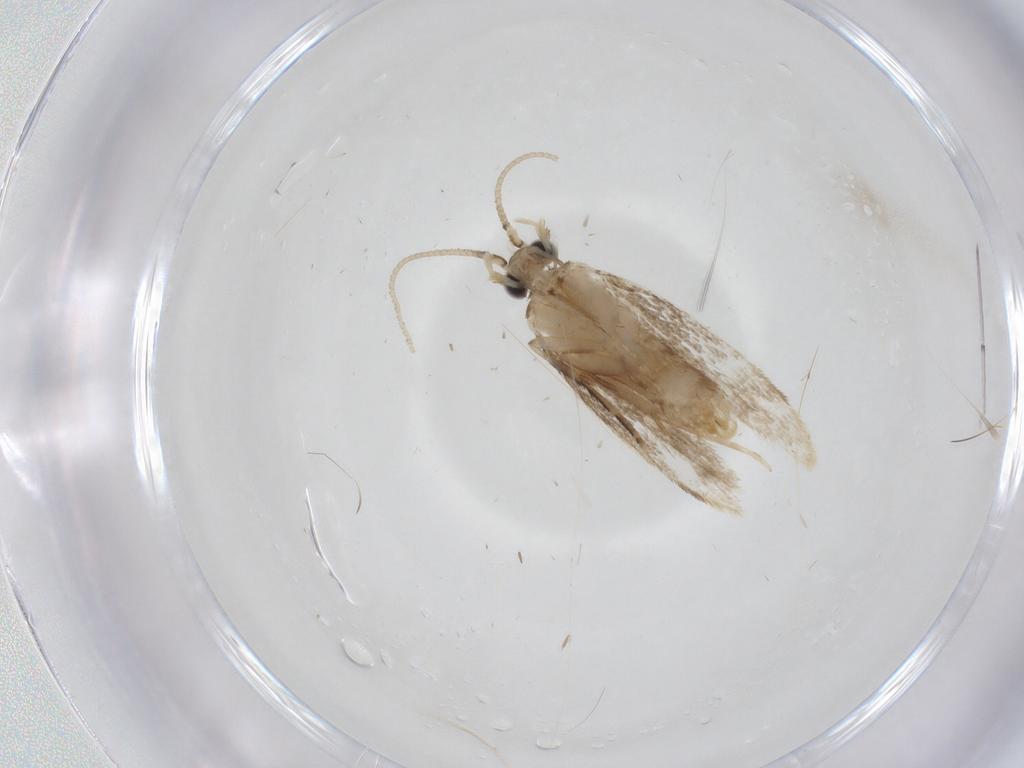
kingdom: Animalia
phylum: Arthropoda
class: Insecta
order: Lepidoptera
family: Dryadaulidae
